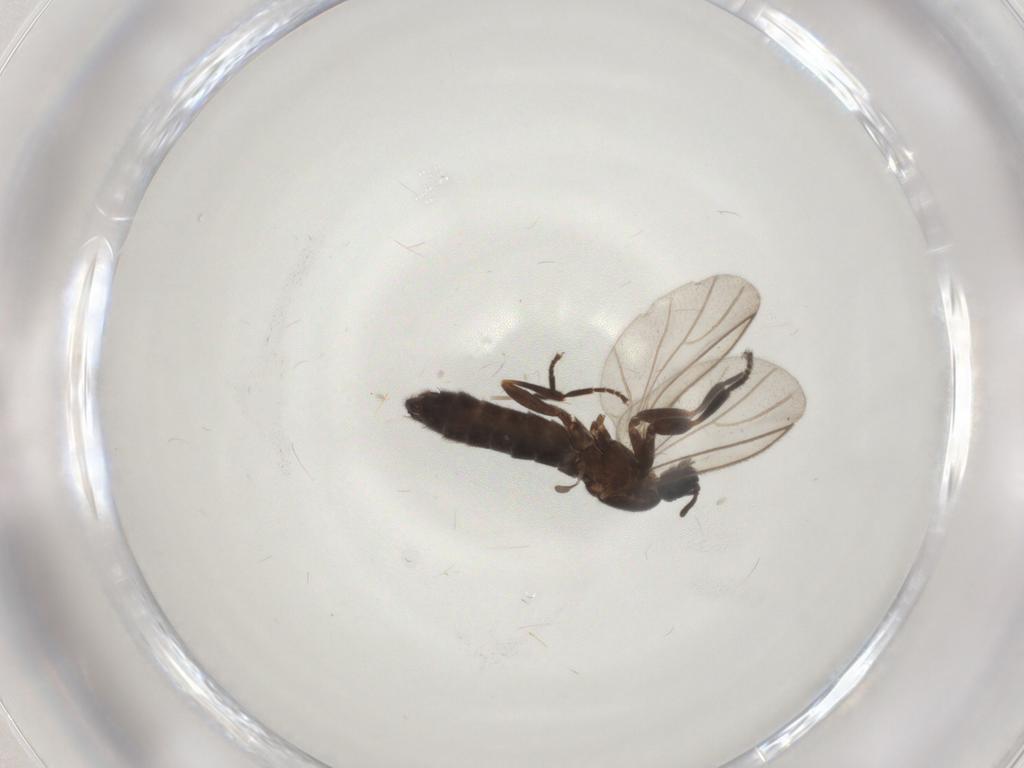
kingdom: Animalia
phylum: Arthropoda
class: Insecta
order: Diptera
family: Scatopsidae
